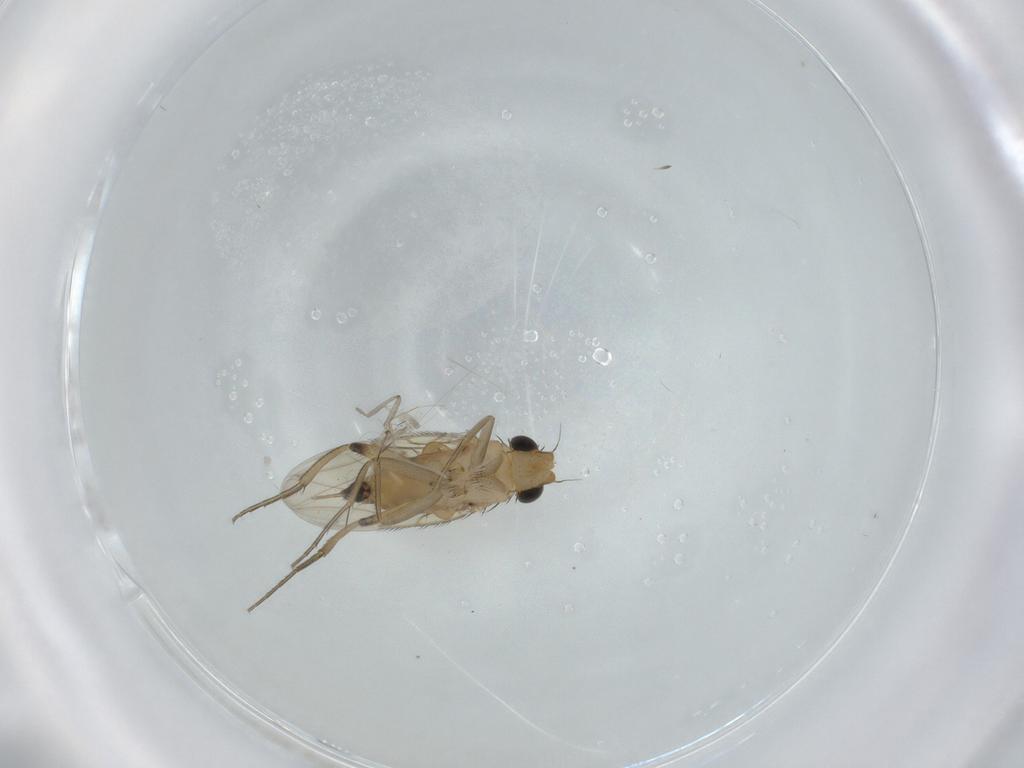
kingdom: Animalia
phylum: Arthropoda
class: Insecta
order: Diptera
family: Phoridae
